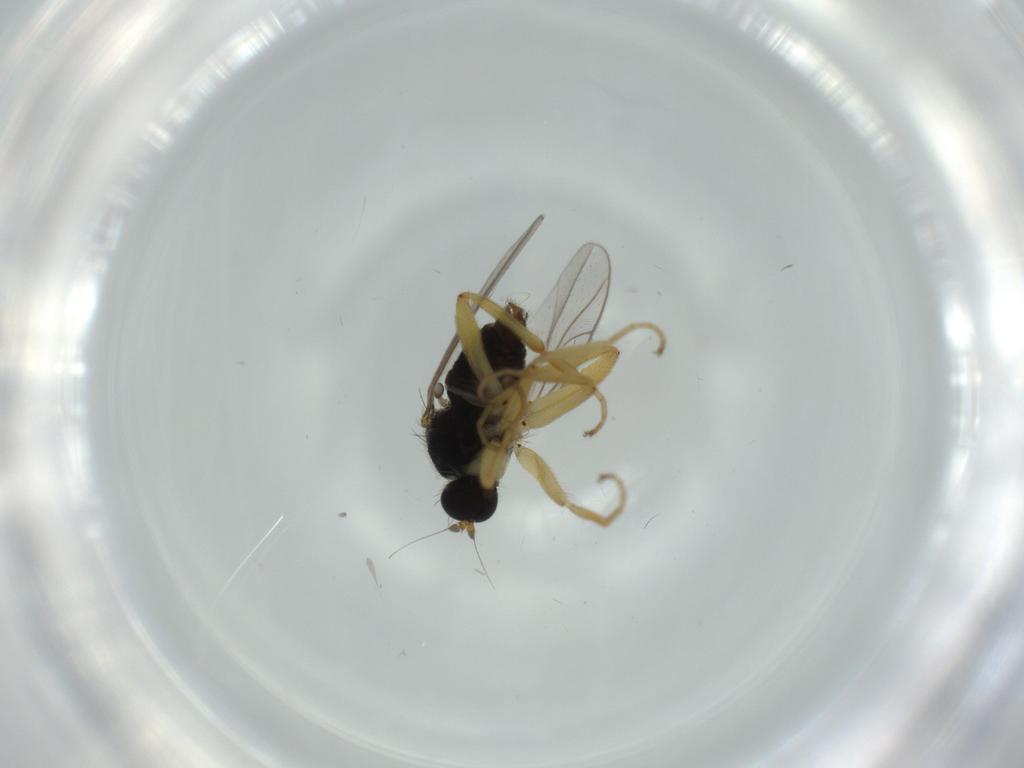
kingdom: Animalia
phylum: Arthropoda
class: Insecta
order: Diptera
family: Hybotidae
